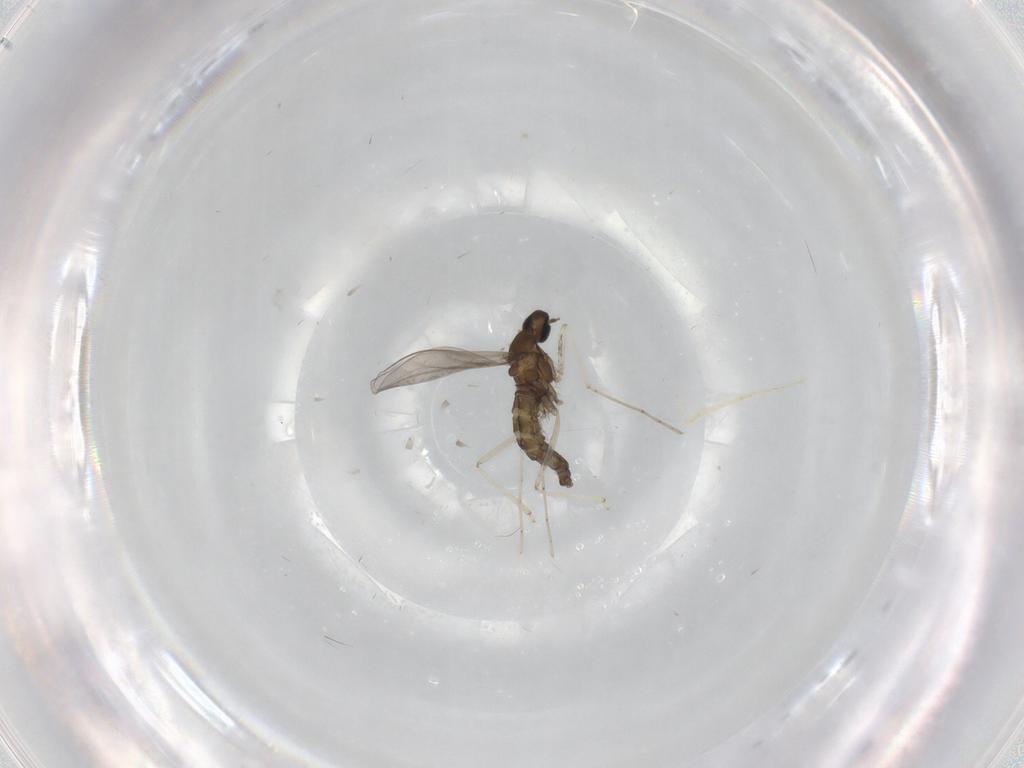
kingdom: Animalia
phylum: Arthropoda
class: Insecta
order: Diptera
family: Cecidomyiidae
